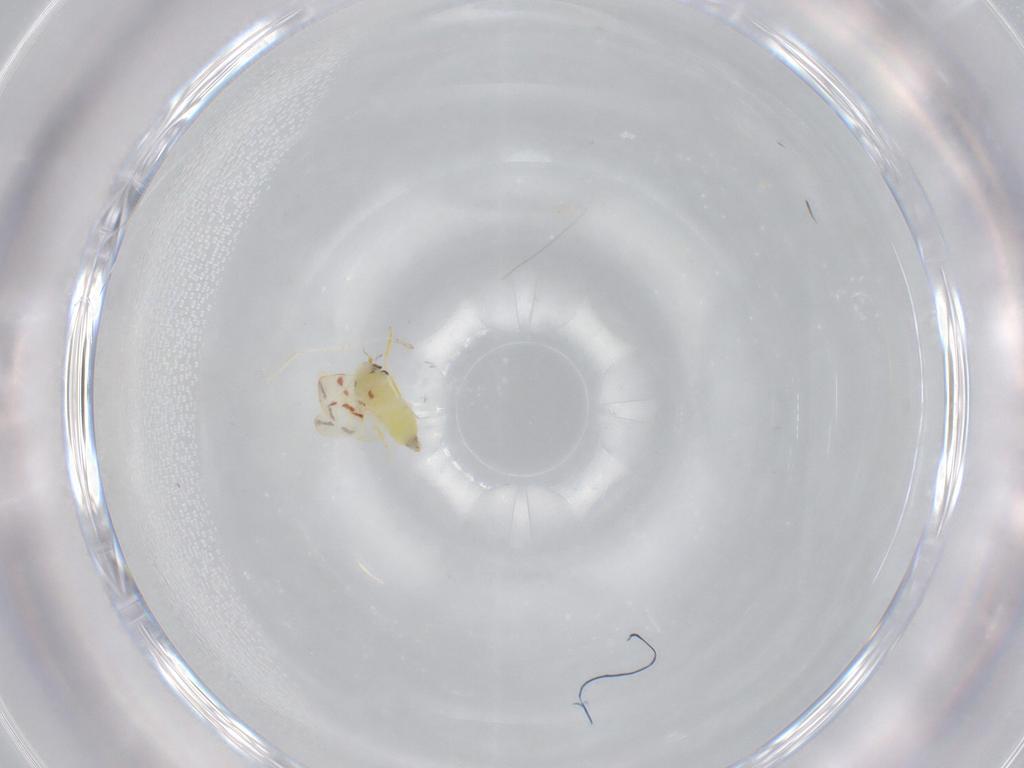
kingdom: Animalia
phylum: Arthropoda
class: Insecta
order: Hemiptera
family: Aleyrodidae
